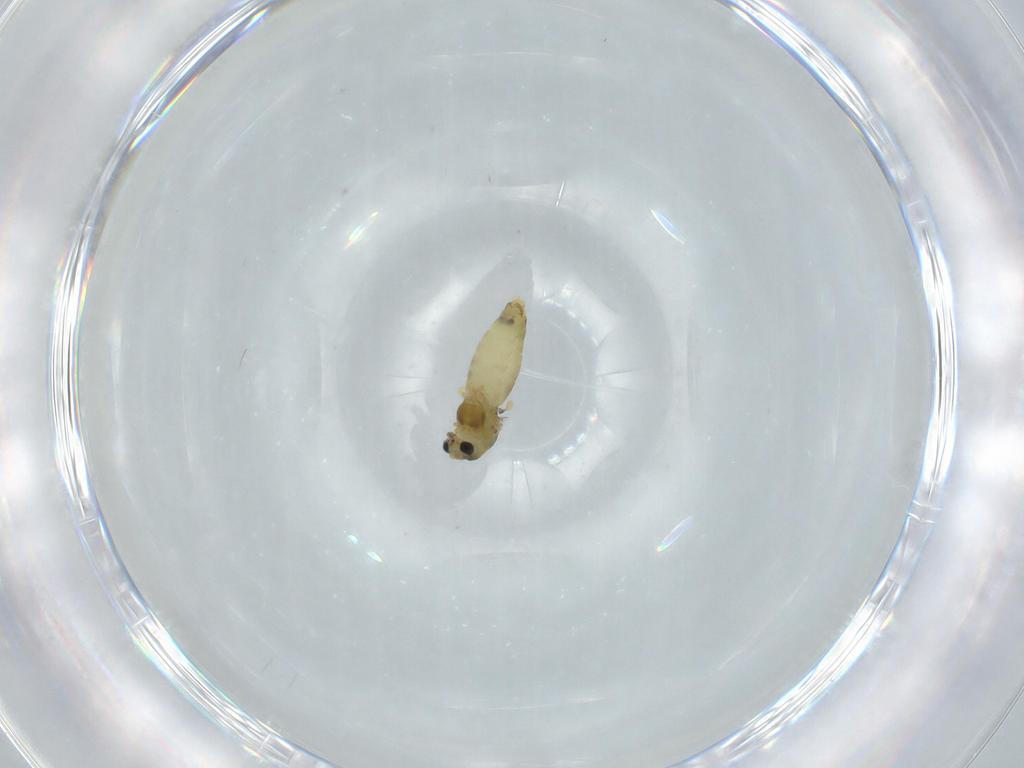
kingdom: Animalia
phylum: Arthropoda
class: Insecta
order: Diptera
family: Chironomidae
